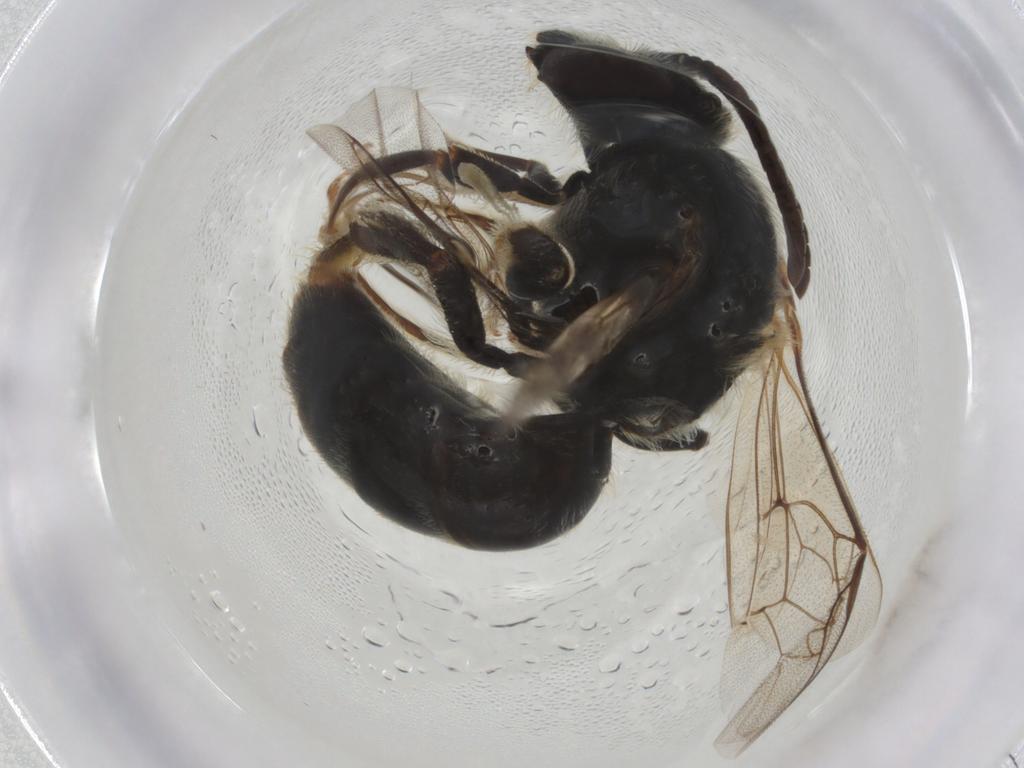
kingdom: Animalia
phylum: Arthropoda
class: Insecta
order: Hymenoptera
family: Halictidae
